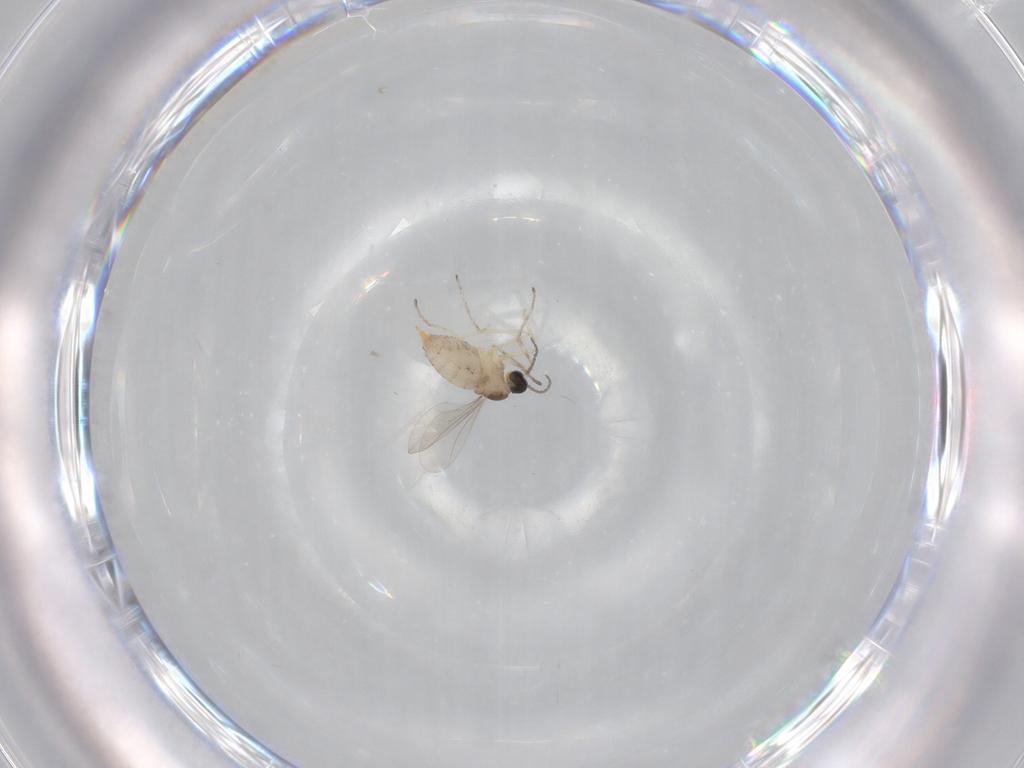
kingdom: Animalia
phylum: Arthropoda
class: Insecta
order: Diptera
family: Cecidomyiidae
